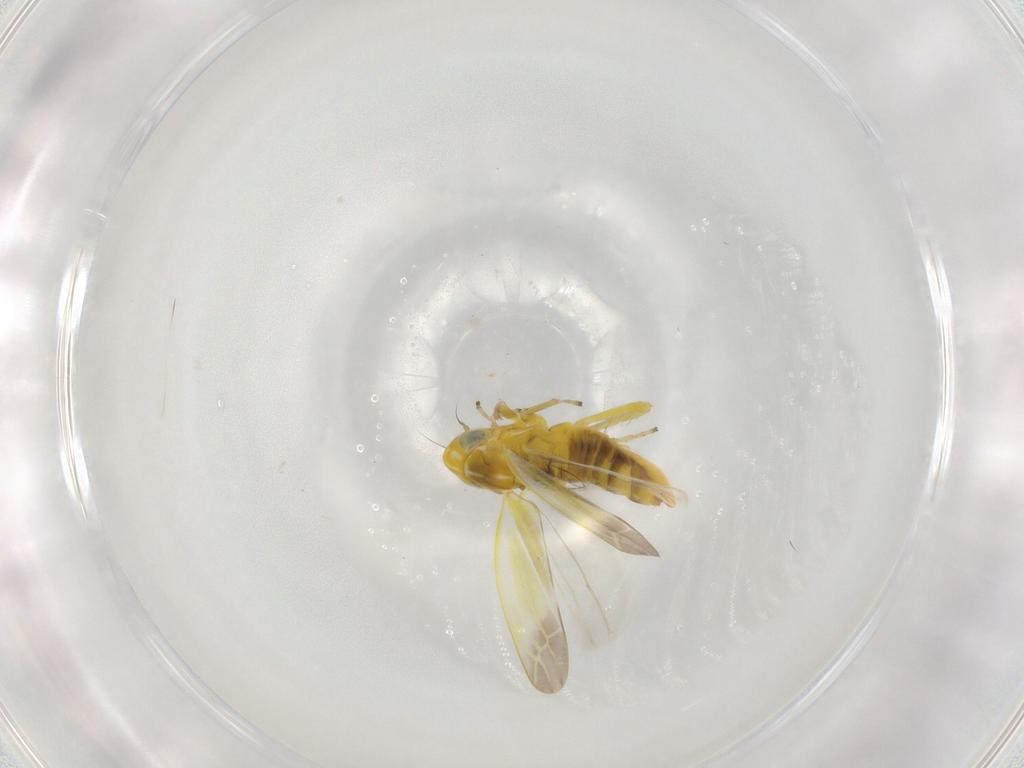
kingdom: Animalia
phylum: Arthropoda
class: Insecta
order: Hemiptera
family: Cicadellidae
